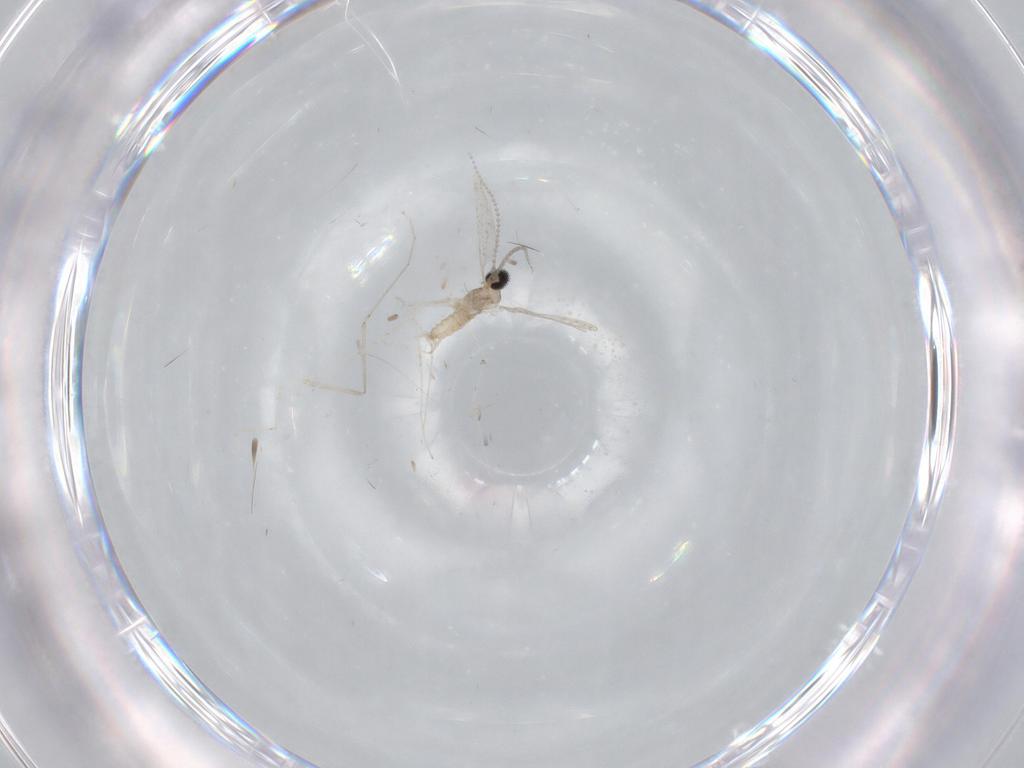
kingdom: Animalia
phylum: Arthropoda
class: Insecta
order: Diptera
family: Cecidomyiidae
